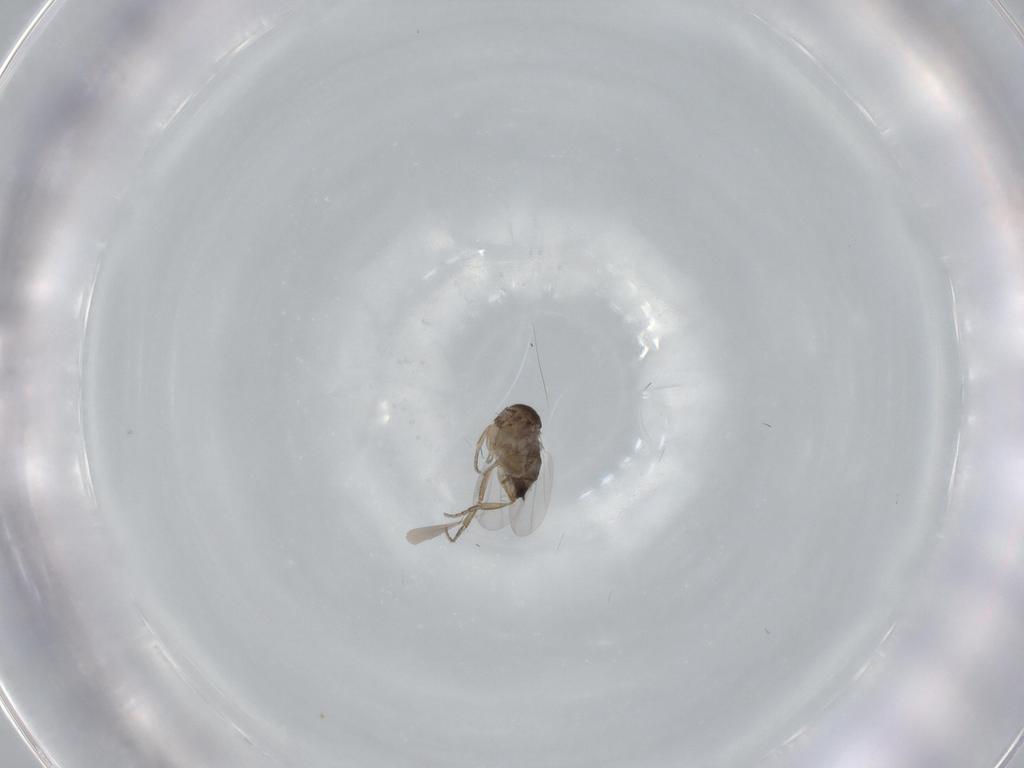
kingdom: Animalia
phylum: Arthropoda
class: Insecta
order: Diptera
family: Phoridae
